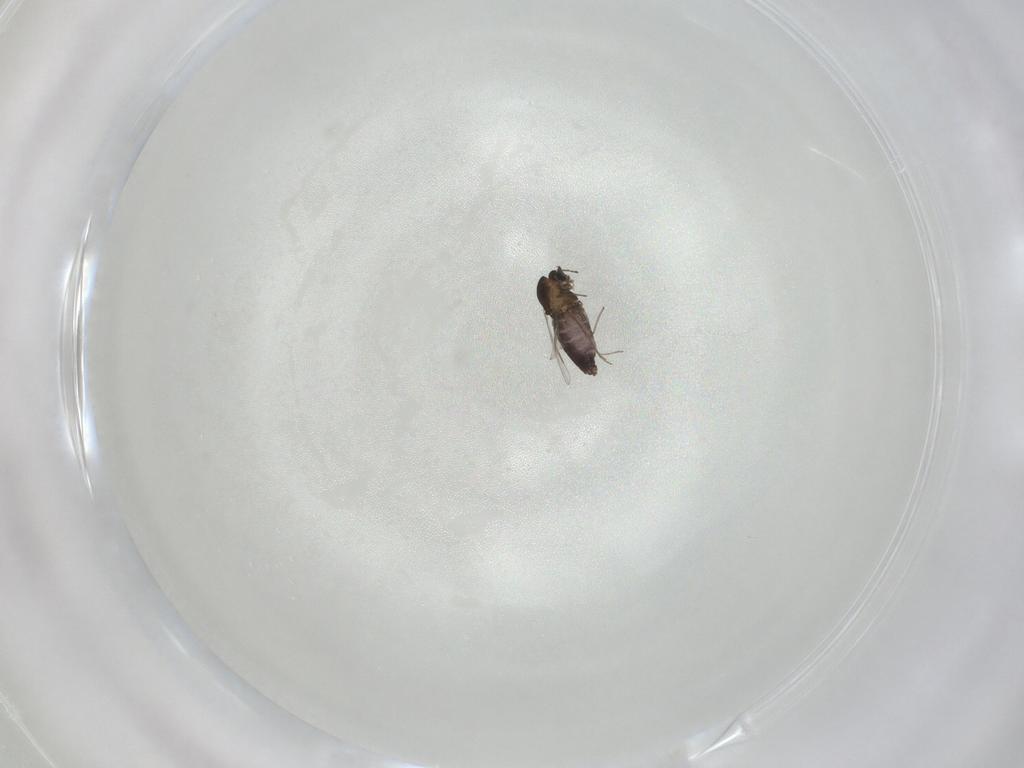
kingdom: Animalia
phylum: Arthropoda
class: Insecta
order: Diptera
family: Chironomidae
